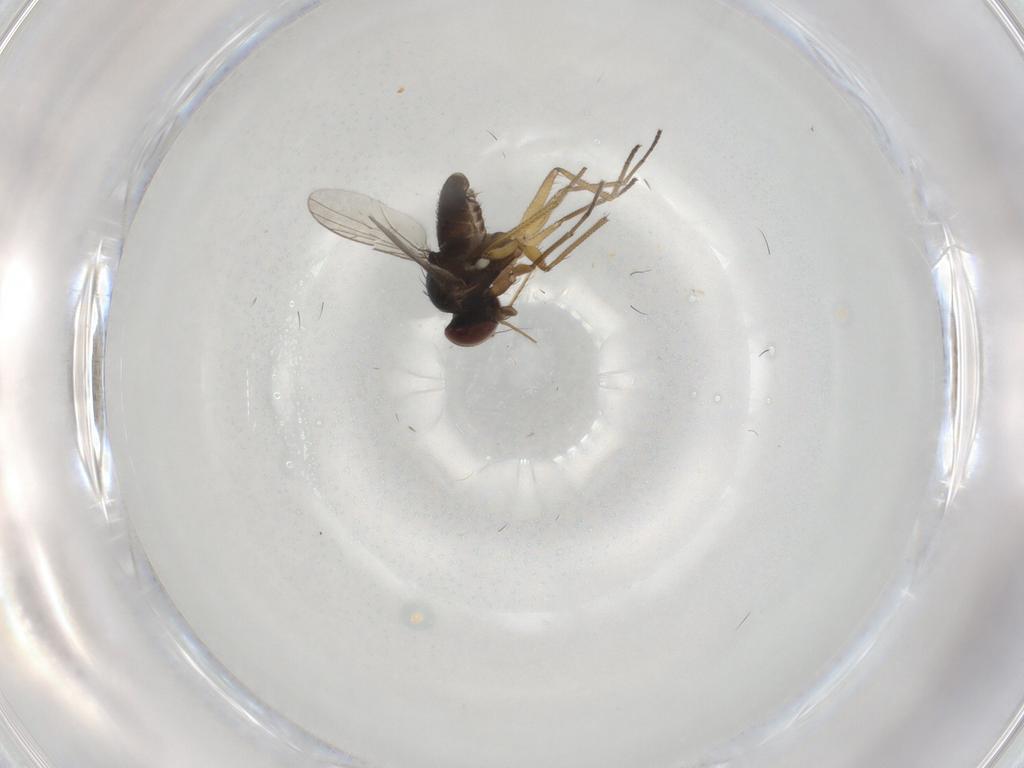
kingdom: Animalia
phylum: Arthropoda
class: Insecta
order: Diptera
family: Dolichopodidae
